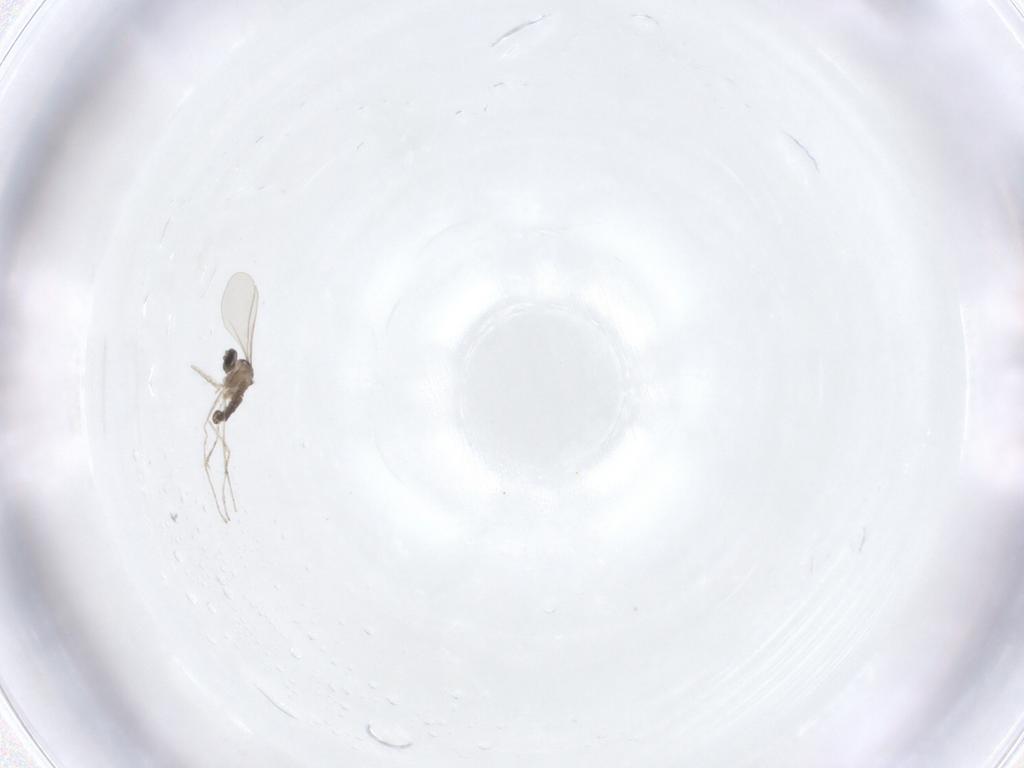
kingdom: Animalia
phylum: Arthropoda
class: Insecta
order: Diptera
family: Cecidomyiidae
